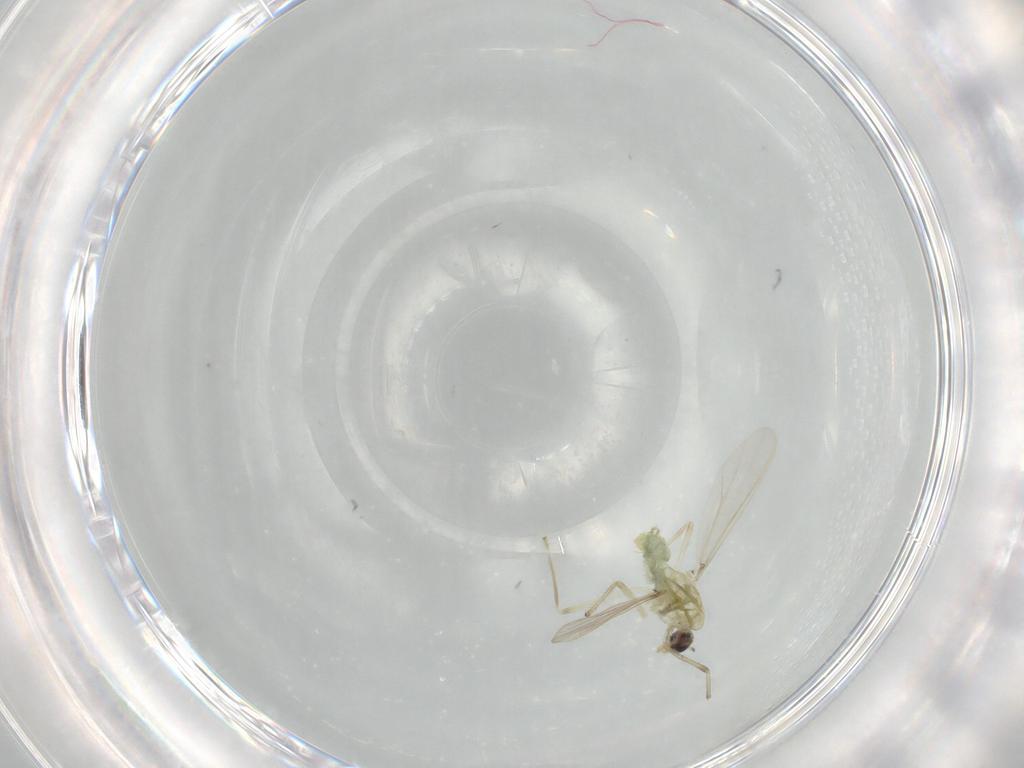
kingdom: Animalia
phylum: Arthropoda
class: Insecta
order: Diptera
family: Chironomidae
